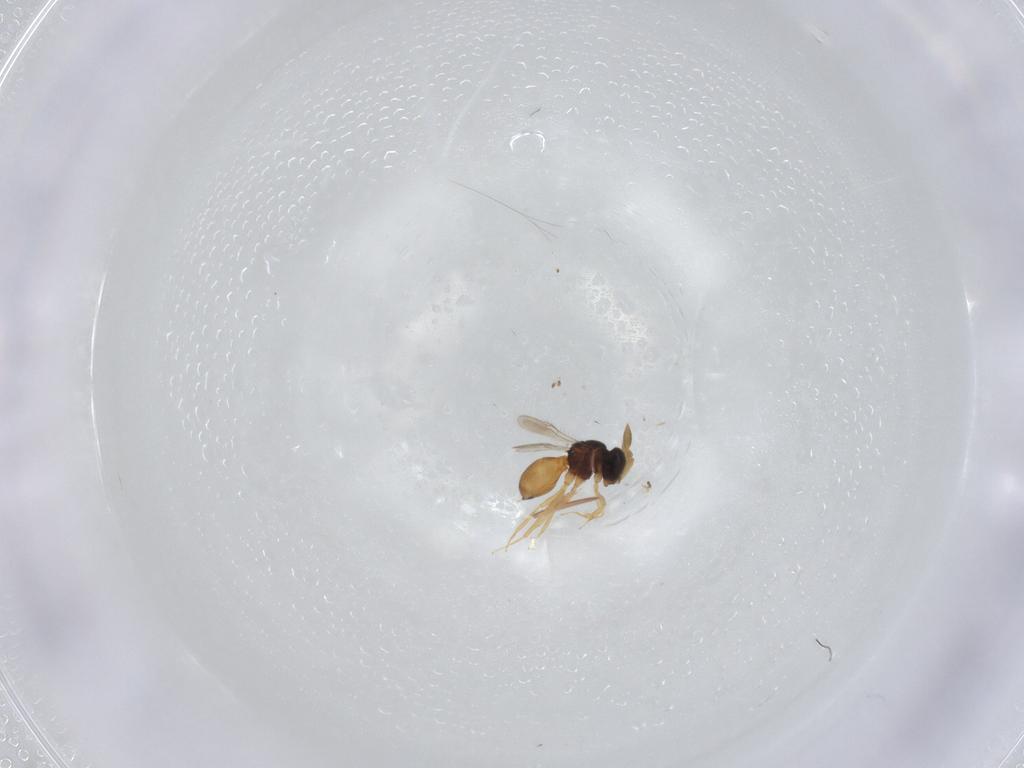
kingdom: Animalia
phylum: Arthropoda
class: Insecta
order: Hymenoptera
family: Scelionidae
